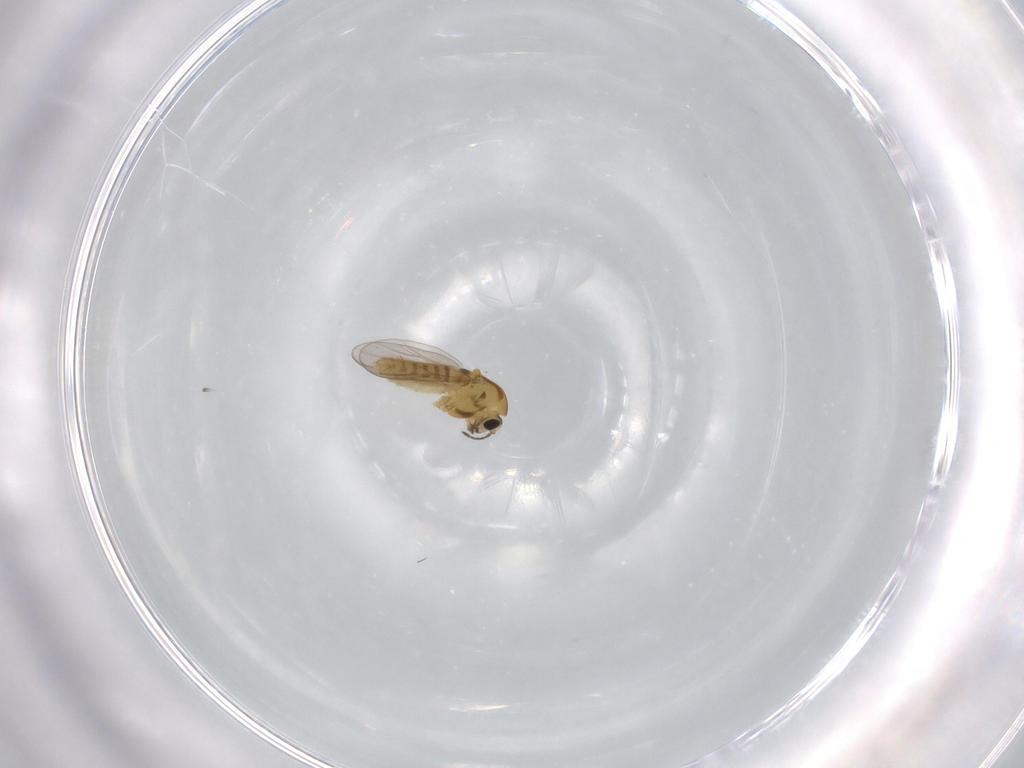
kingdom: Animalia
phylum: Arthropoda
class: Insecta
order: Diptera
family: Chironomidae
